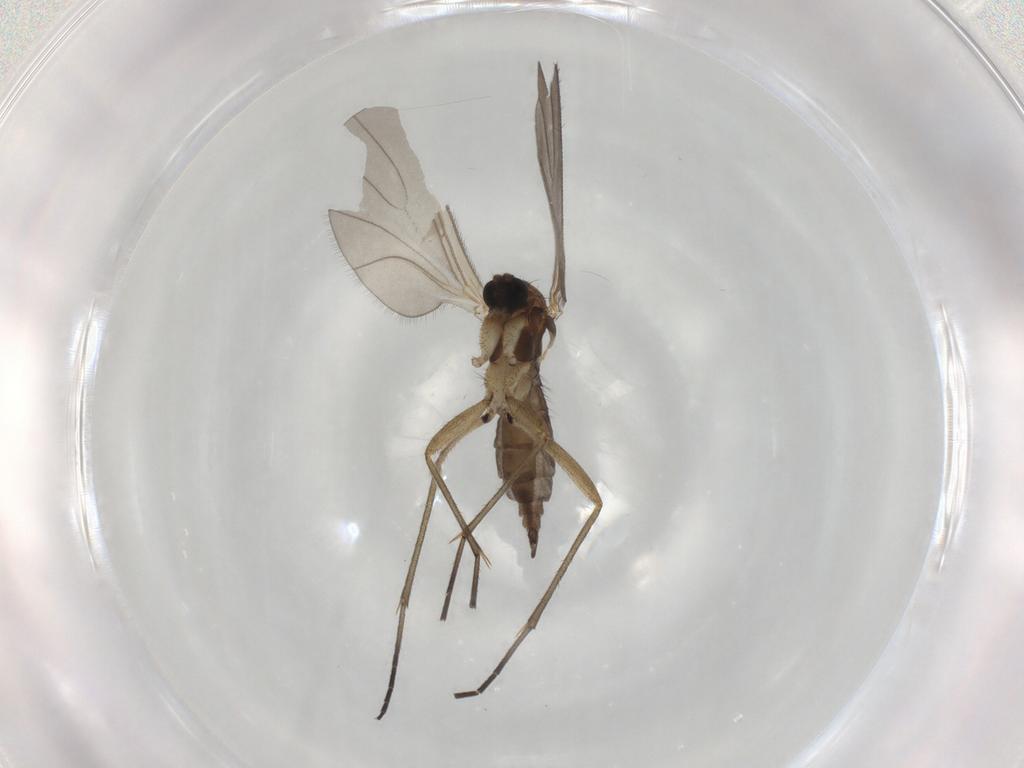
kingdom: Animalia
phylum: Arthropoda
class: Insecta
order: Diptera
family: Sciaridae
